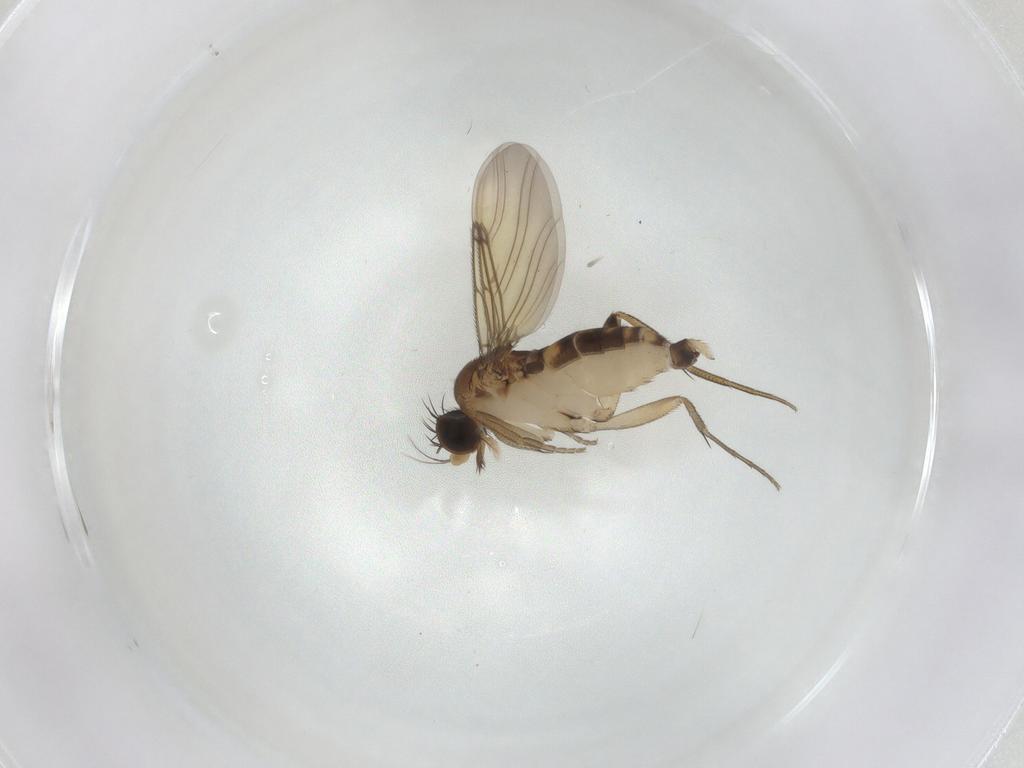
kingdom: Animalia
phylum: Arthropoda
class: Insecta
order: Diptera
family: Phoridae
